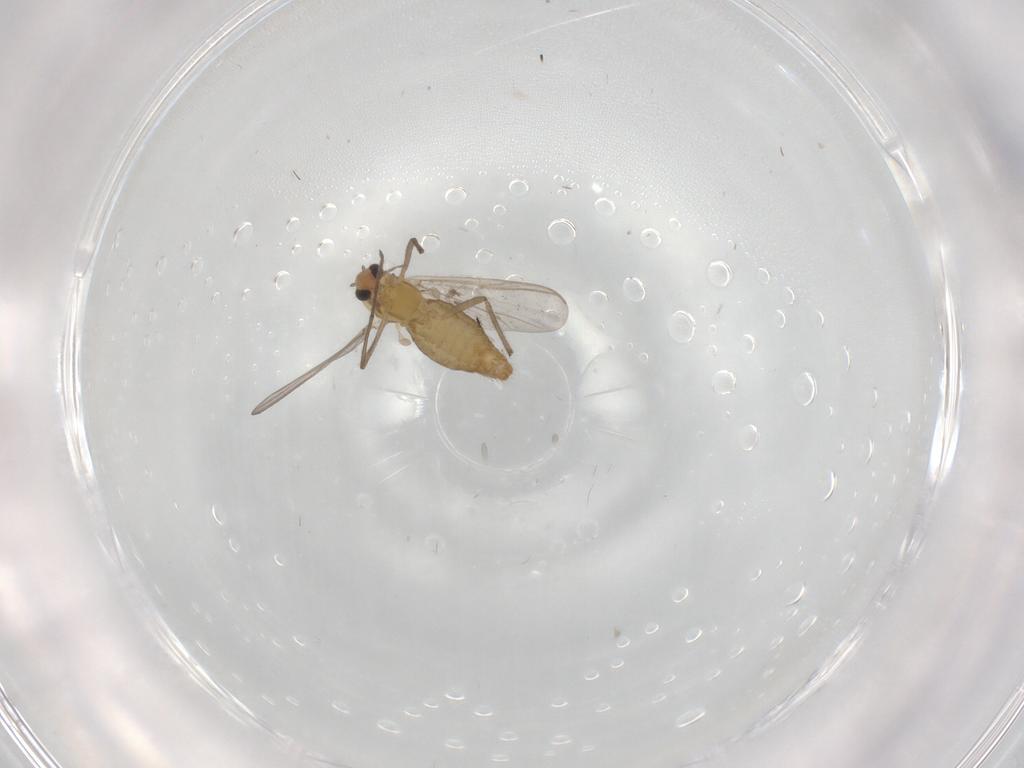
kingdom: Animalia
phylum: Arthropoda
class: Insecta
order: Diptera
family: Chironomidae
